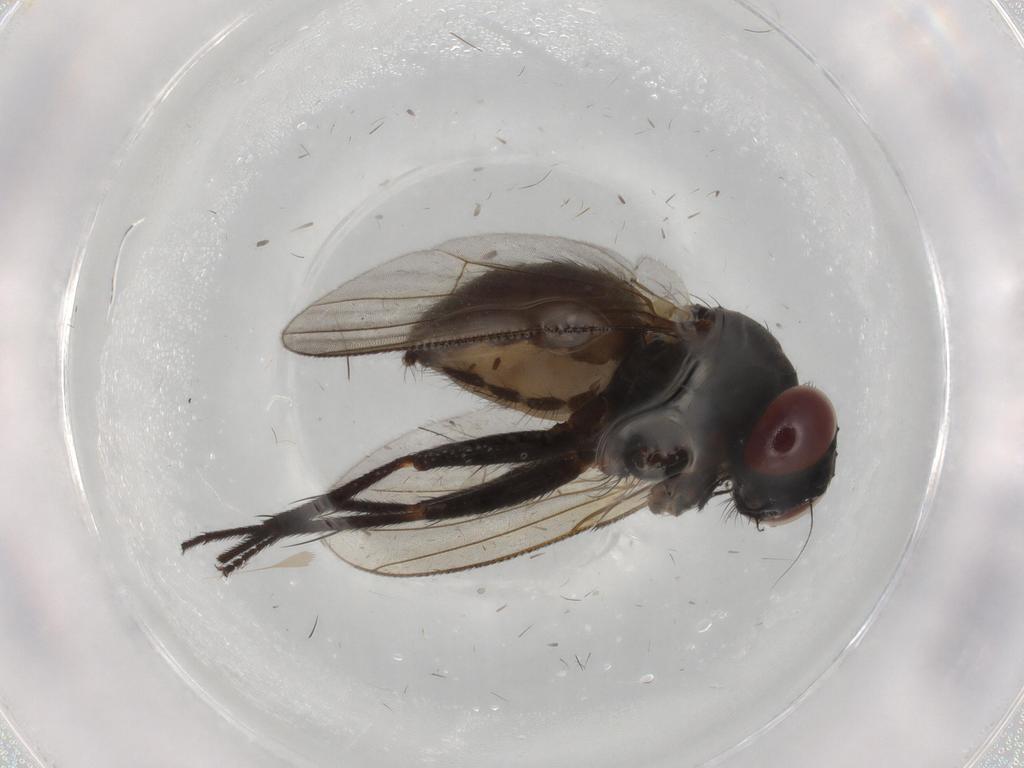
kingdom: Animalia
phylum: Arthropoda
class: Insecta
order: Diptera
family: Muscidae
